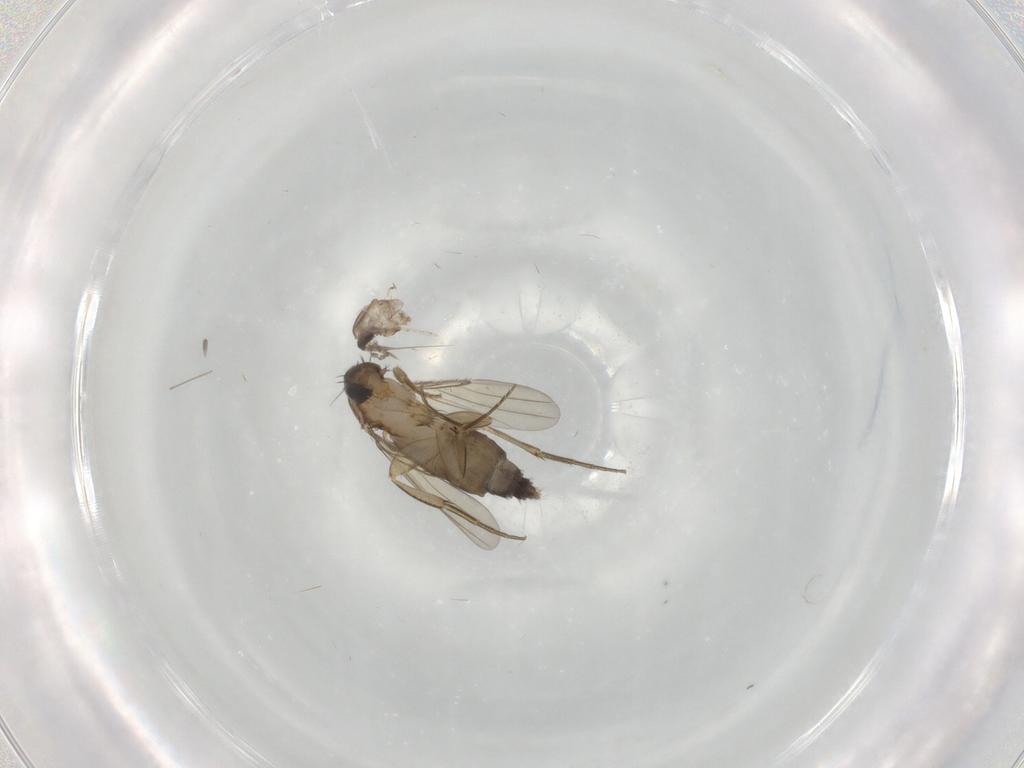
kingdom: Animalia
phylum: Arthropoda
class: Insecta
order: Diptera
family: Phoridae
